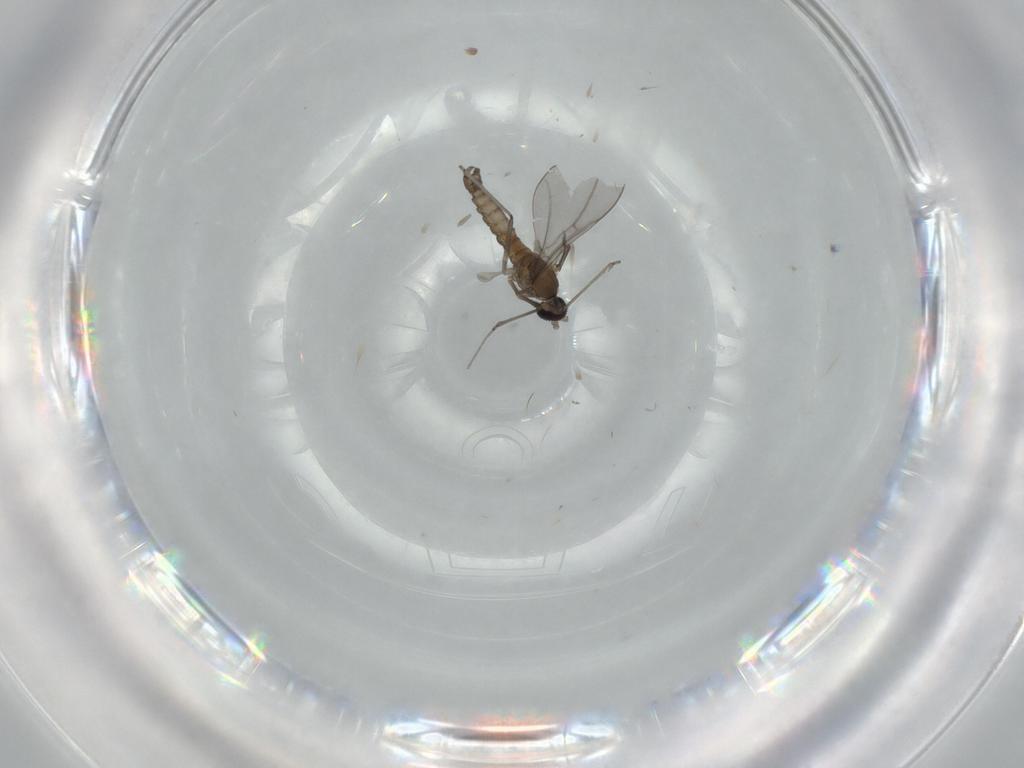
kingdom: Animalia
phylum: Arthropoda
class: Insecta
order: Diptera
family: Cecidomyiidae
